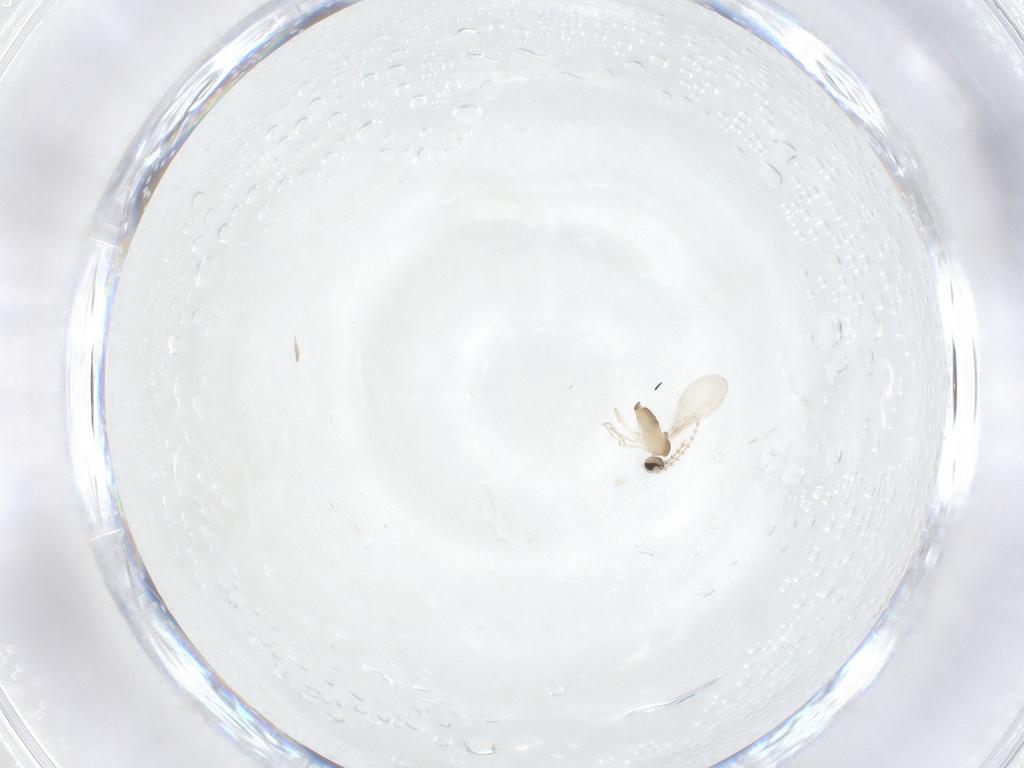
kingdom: Animalia
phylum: Arthropoda
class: Insecta
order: Diptera
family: Cecidomyiidae
